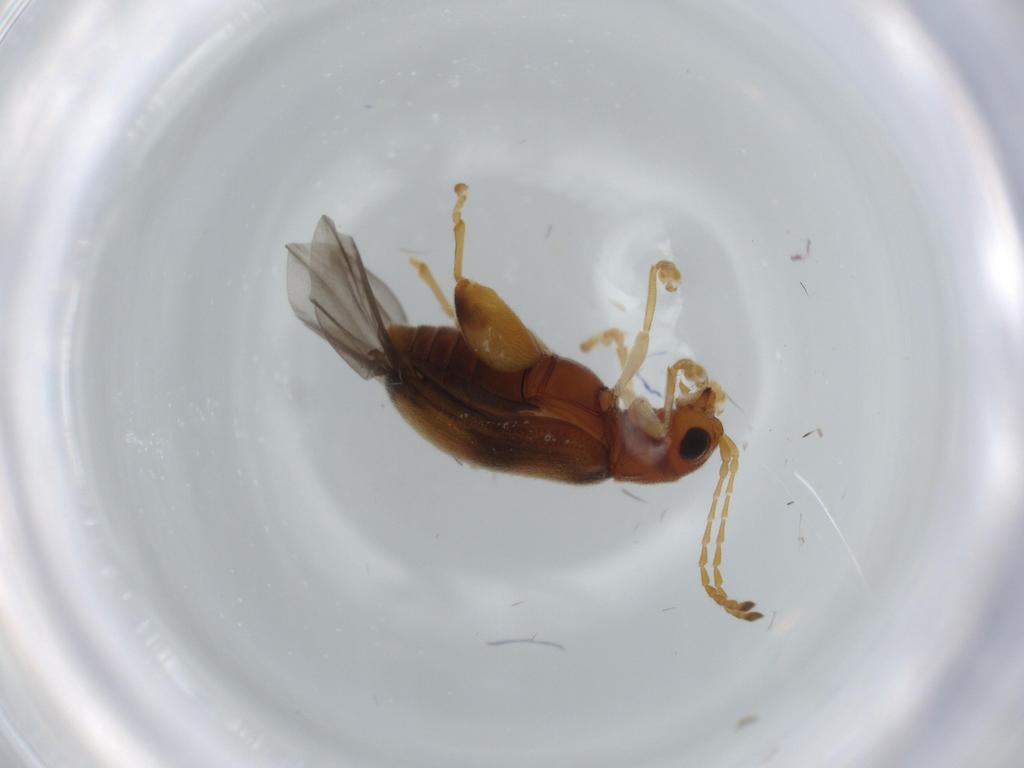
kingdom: Animalia
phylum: Arthropoda
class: Insecta
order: Coleoptera
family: Chrysomelidae
